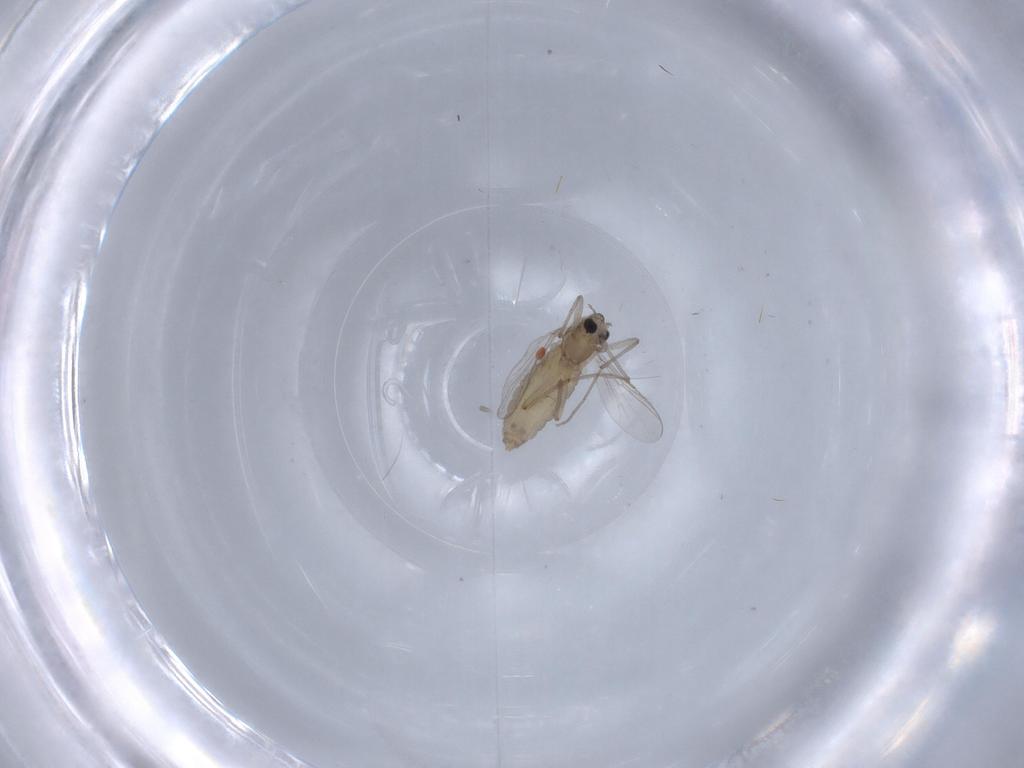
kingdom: Animalia
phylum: Arthropoda
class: Insecta
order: Diptera
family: Chironomidae
